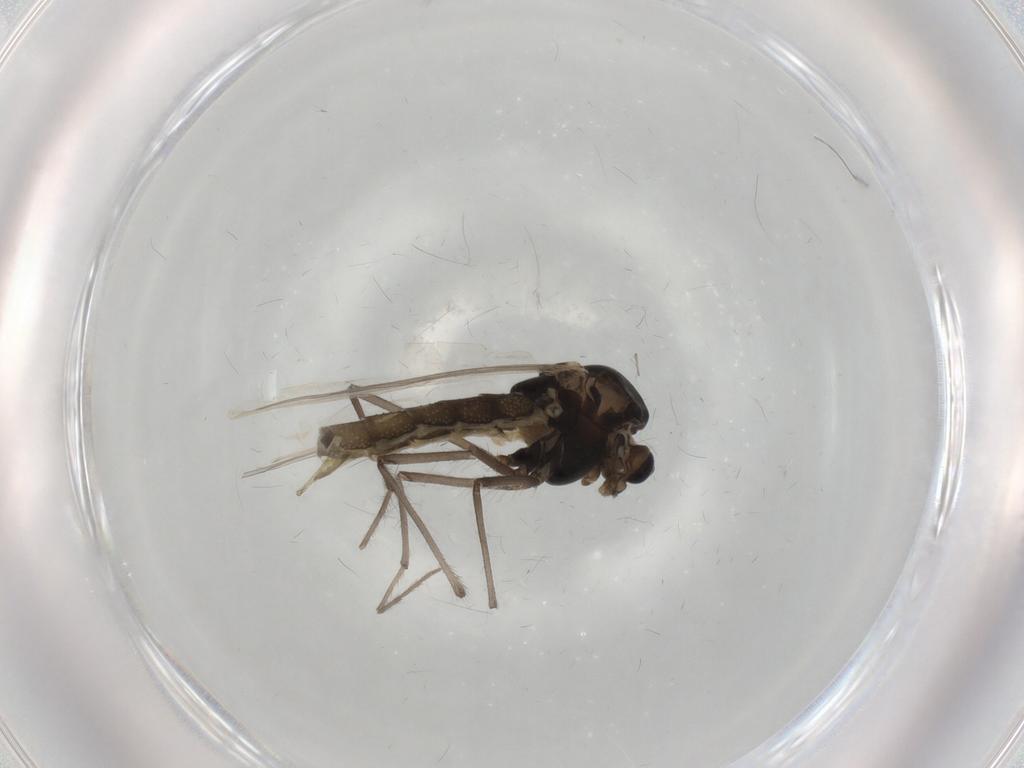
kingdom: Animalia
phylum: Arthropoda
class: Insecta
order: Diptera
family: Chironomidae
